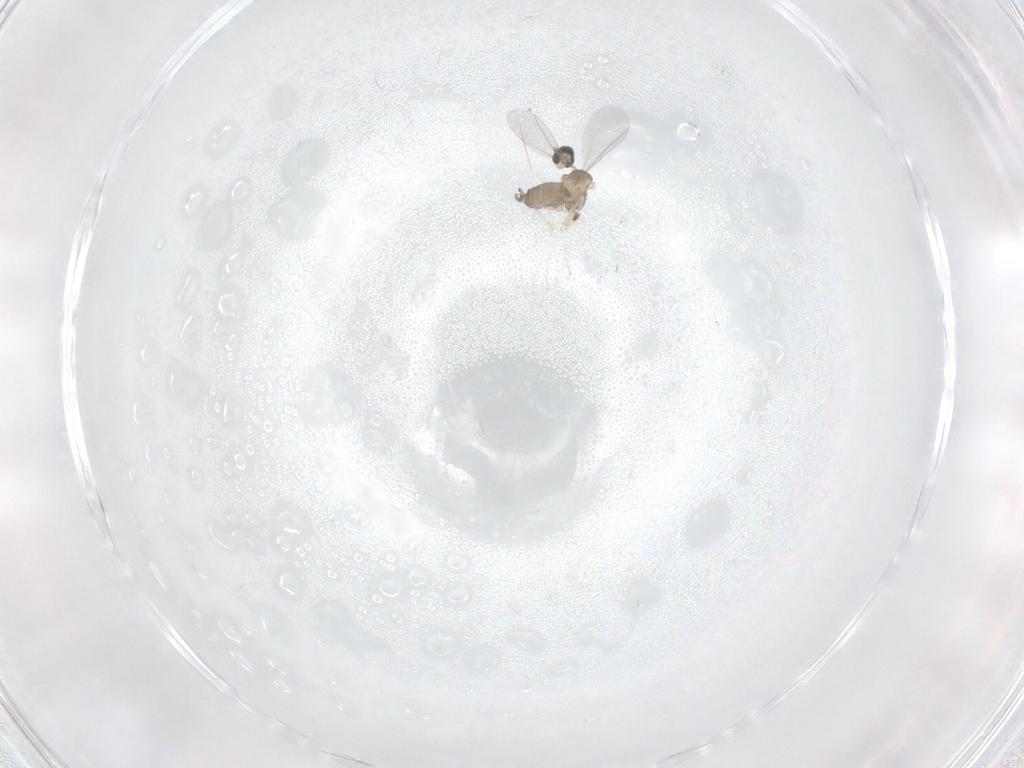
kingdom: Animalia
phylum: Arthropoda
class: Insecta
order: Diptera
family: Cecidomyiidae
